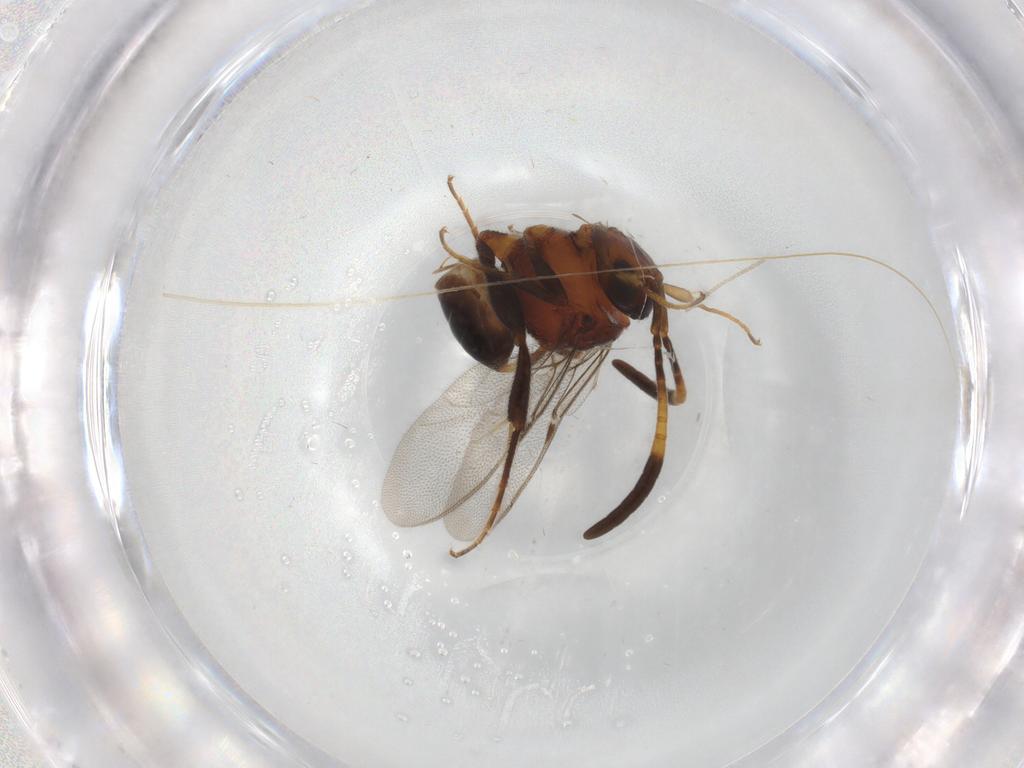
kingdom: Animalia
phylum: Arthropoda
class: Insecta
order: Hymenoptera
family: Evaniidae
